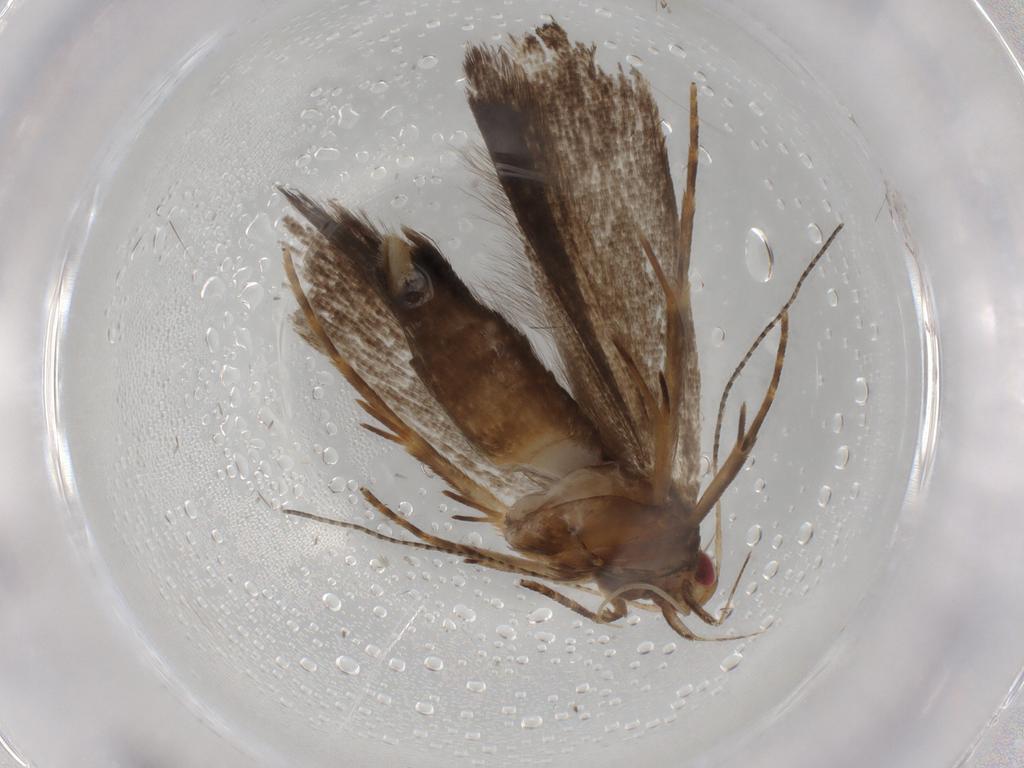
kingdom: Animalia
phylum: Arthropoda
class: Insecta
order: Lepidoptera
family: Gelechiidae
